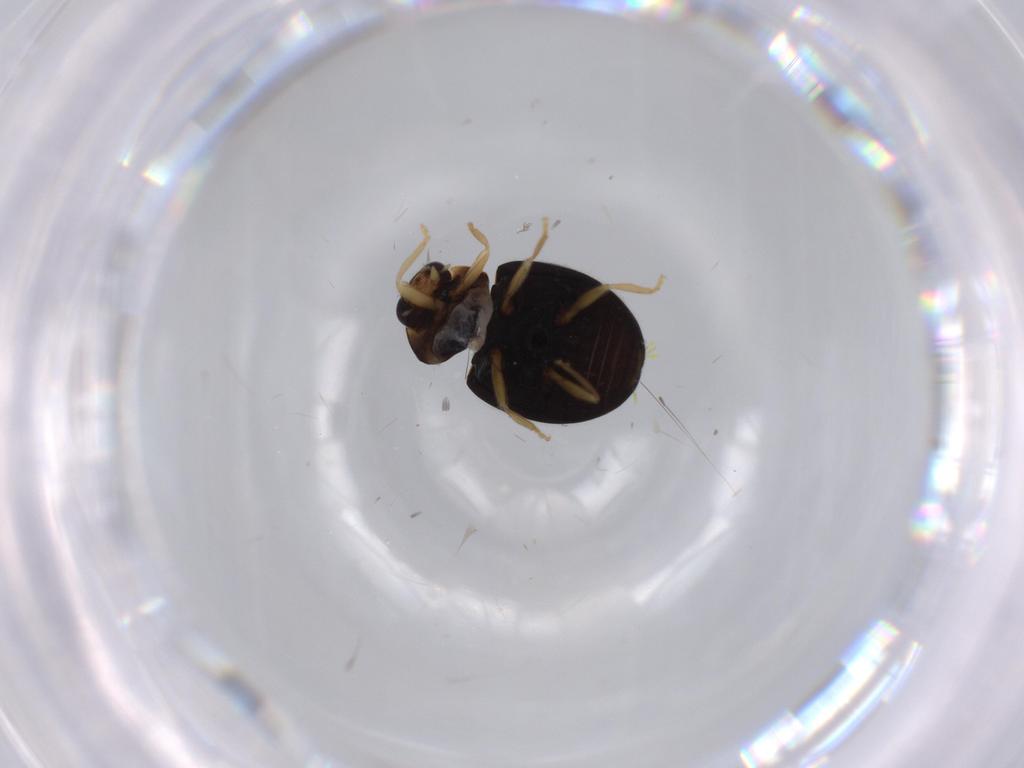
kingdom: Animalia
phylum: Arthropoda
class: Insecta
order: Coleoptera
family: Coccinellidae
